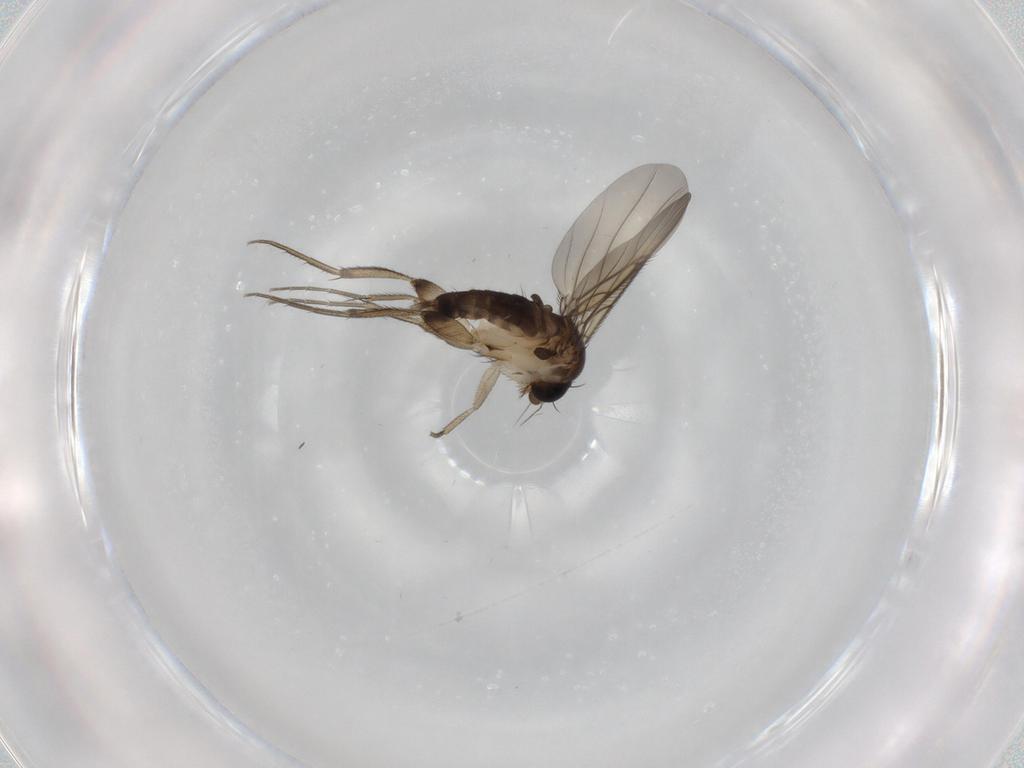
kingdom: Animalia
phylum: Arthropoda
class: Insecta
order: Diptera
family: Phoridae
